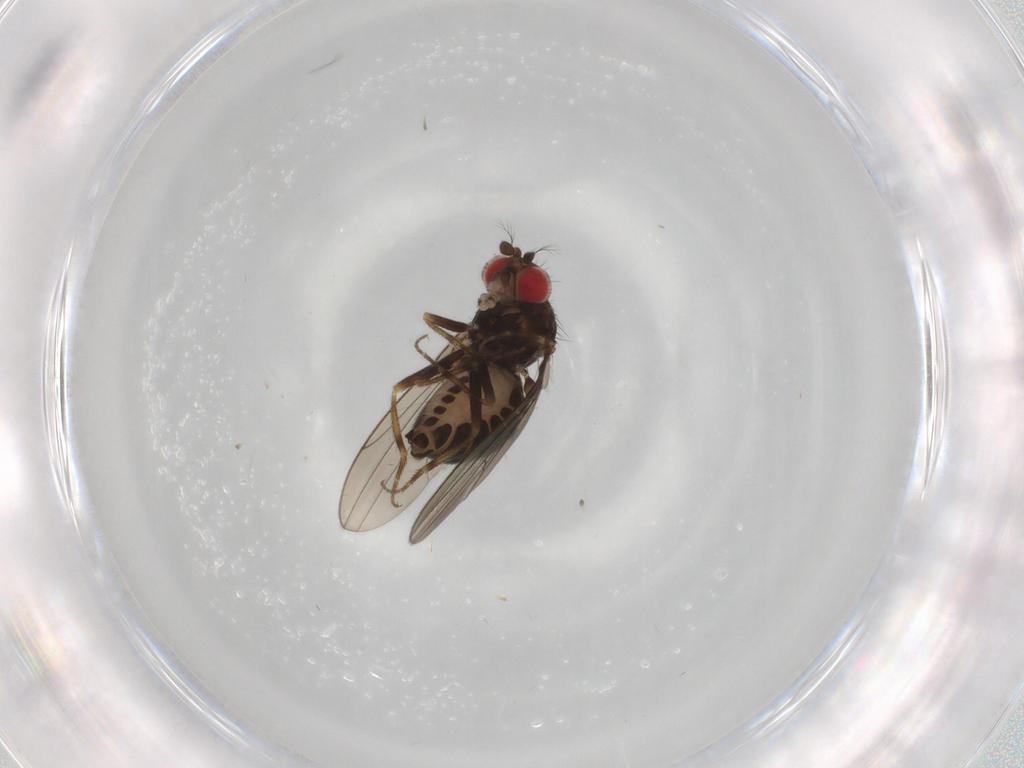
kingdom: Animalia
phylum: Arthropoda
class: Insecta
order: Diptera
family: Drosophilidae
